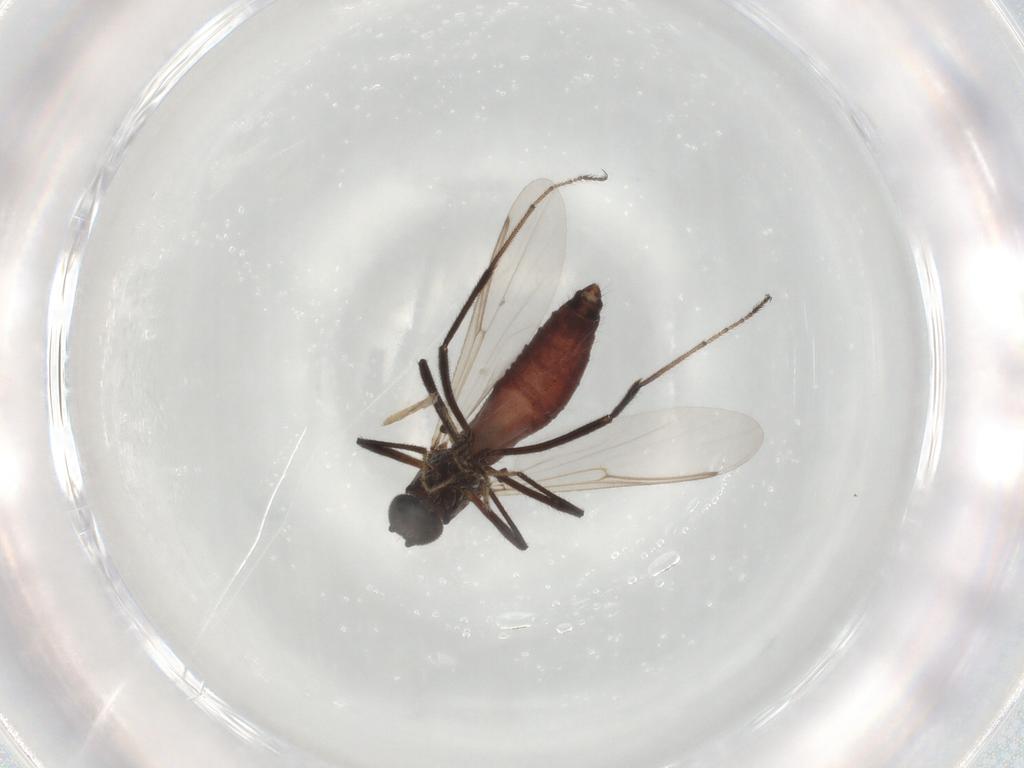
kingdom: Animalia
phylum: Arthropoda
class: Insecta
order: Diptera
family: Ceratopogonidae
